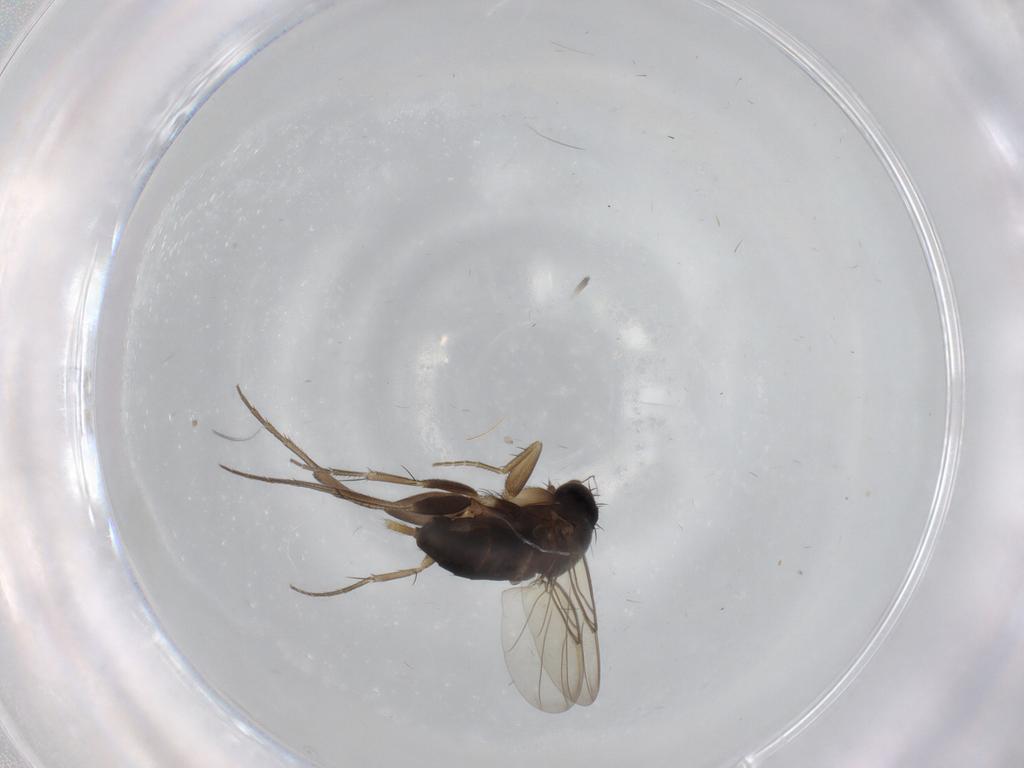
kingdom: Animalia
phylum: Arthropoda
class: Insecta
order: Diptera
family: Phoridae
